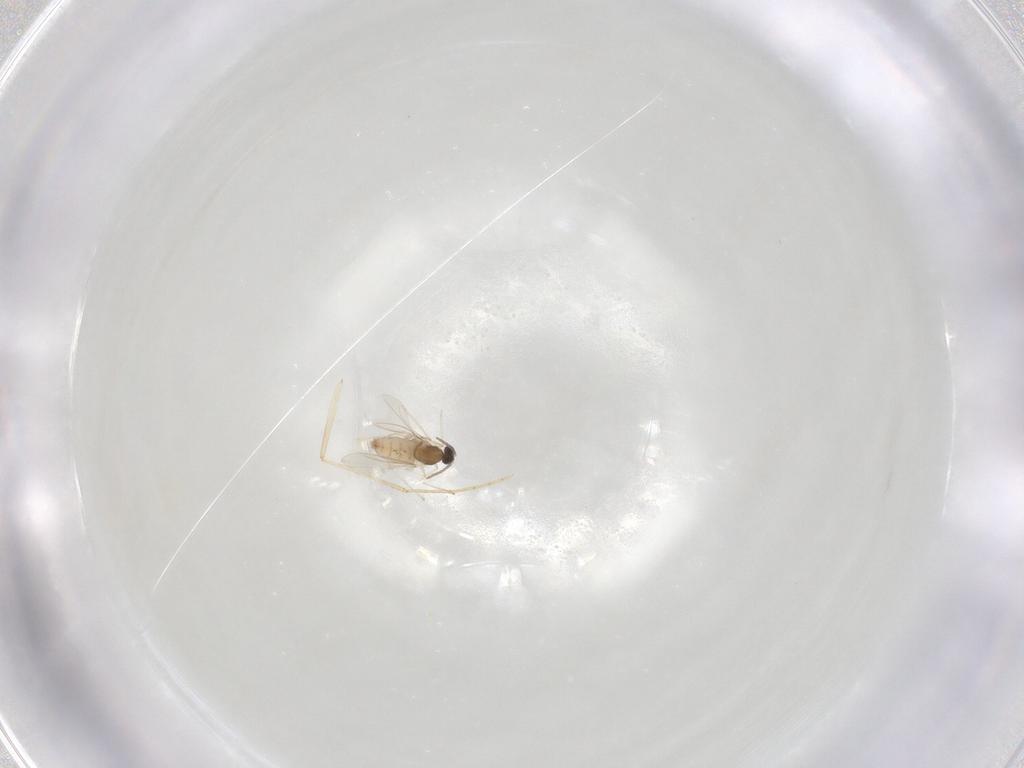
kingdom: Animalia
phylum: Arthropoda
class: Insecta
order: Diptera
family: Psychodidae
